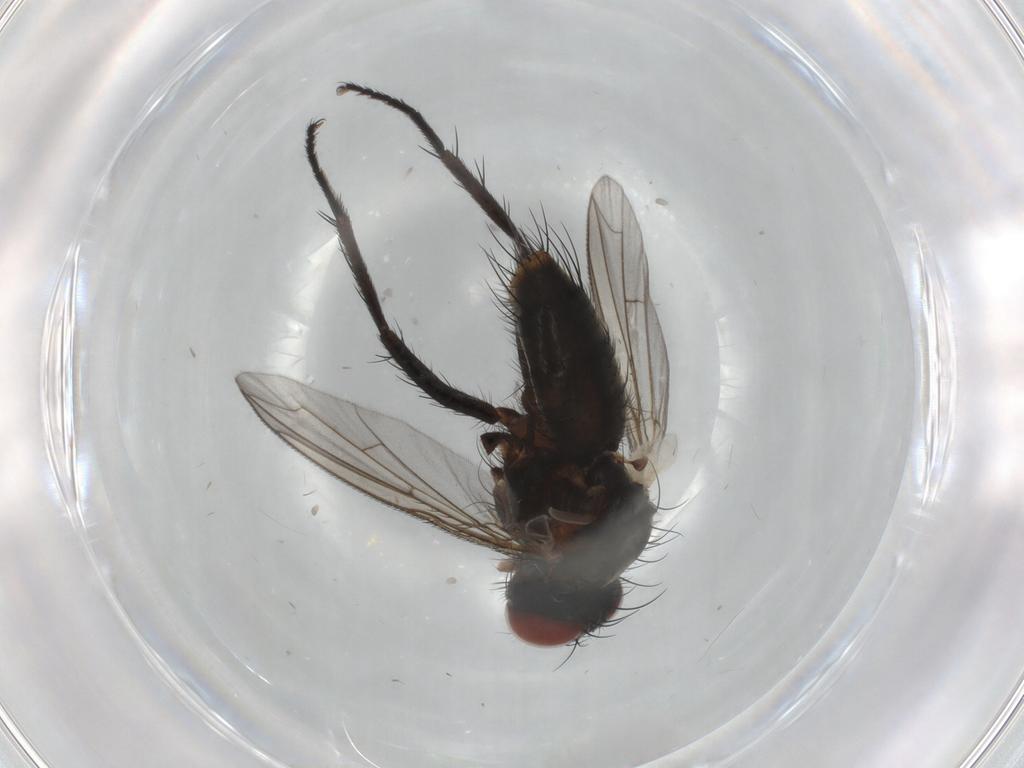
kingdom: Animalia
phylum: Arthropoda
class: Insecta
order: Diptera
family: Sarcophagidae
